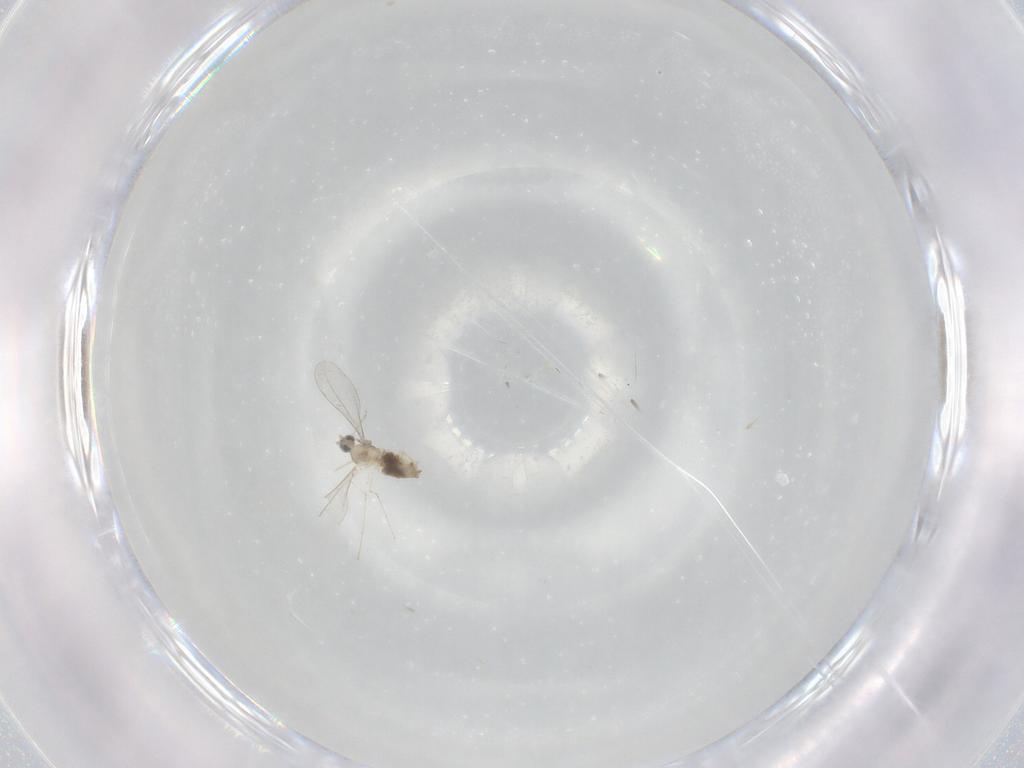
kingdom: Animalia
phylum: Arthropoda
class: Insecta
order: Diptera
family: Cecidomyiidae
